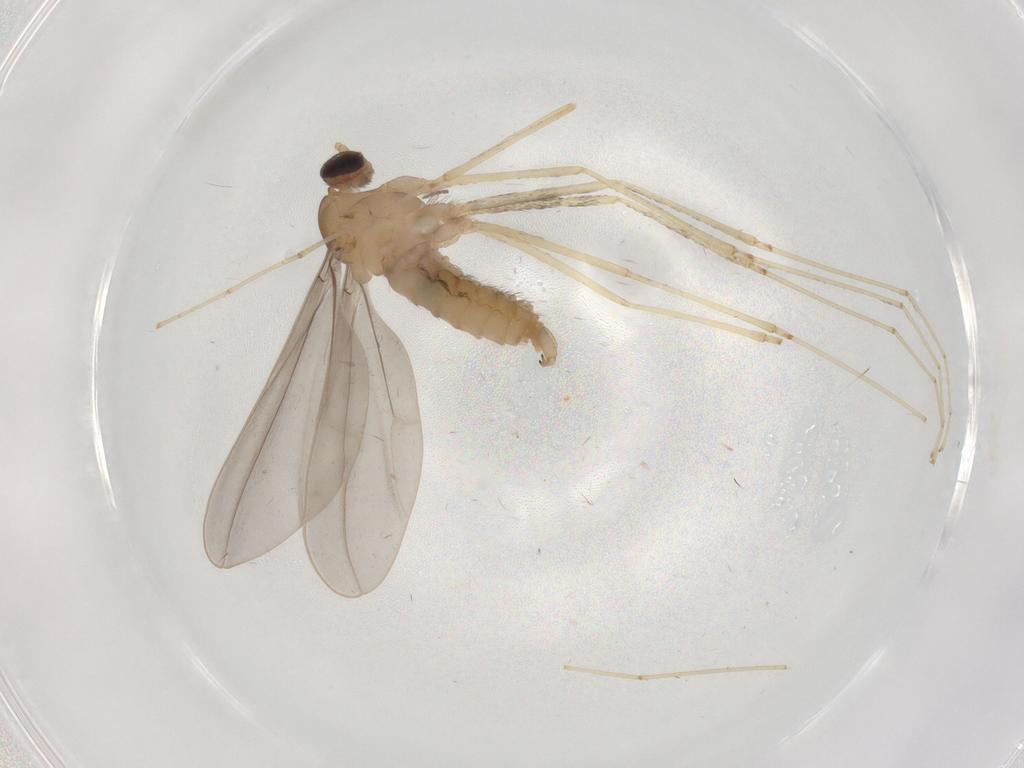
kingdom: Animalia
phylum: Arthropoda
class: Insecta
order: Diptera
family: Cecidomyiidae
